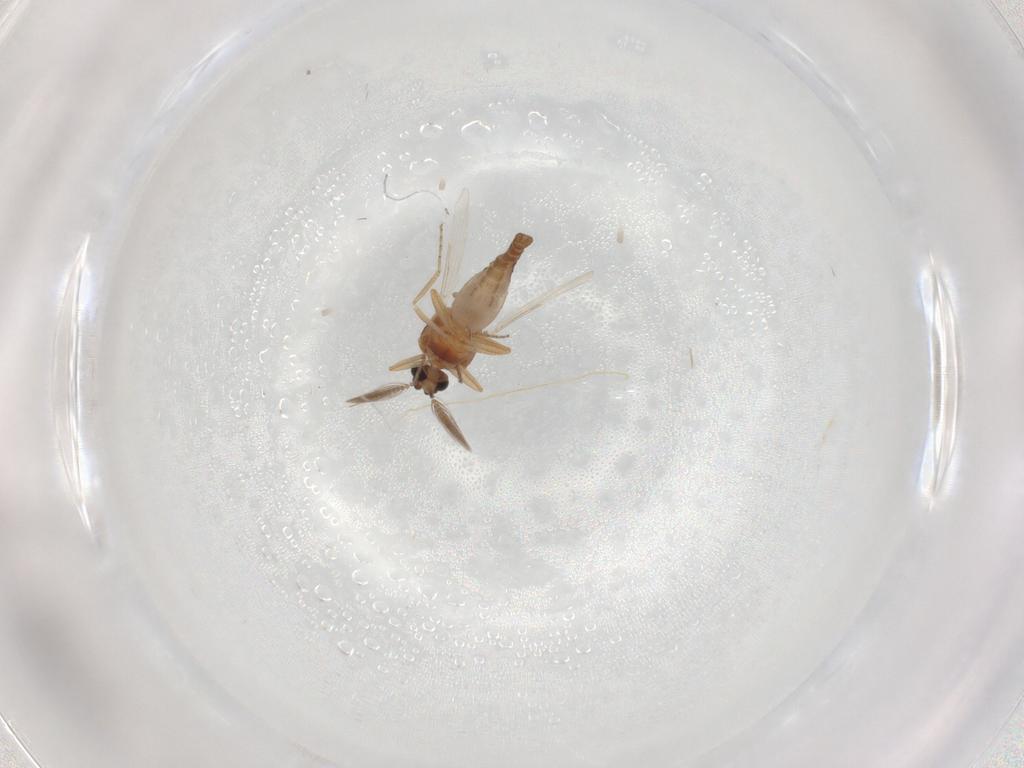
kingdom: Animalia
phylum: Arthropoda
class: Insecta
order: Diptera
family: Ceratopogonidae
